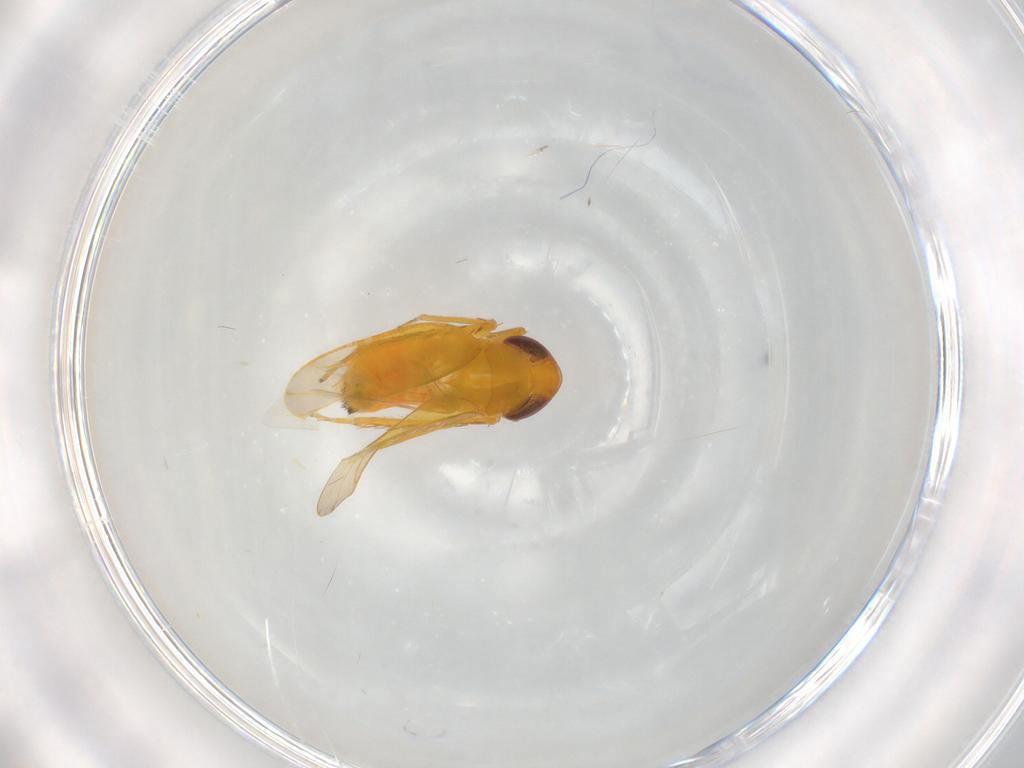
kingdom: Animalia
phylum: Arthropoda
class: Insecta
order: Hemiptera
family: Cicadellidae
